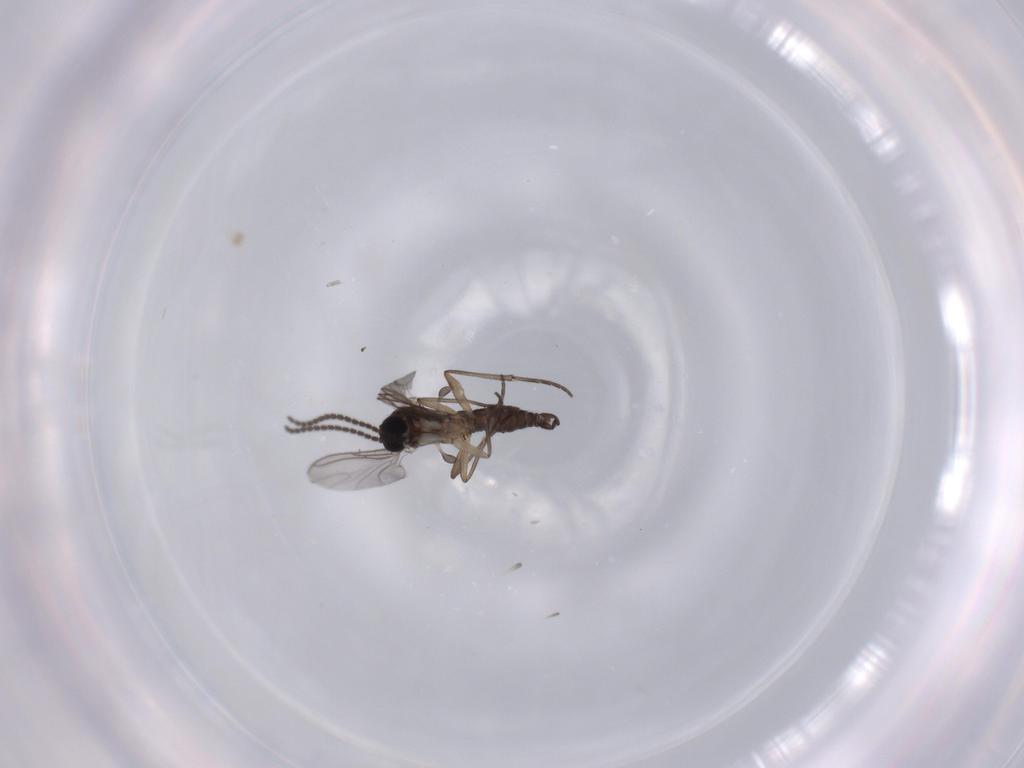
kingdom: Animalia
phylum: Arthropoda
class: Insecta
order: Diptera
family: Sciaridae
